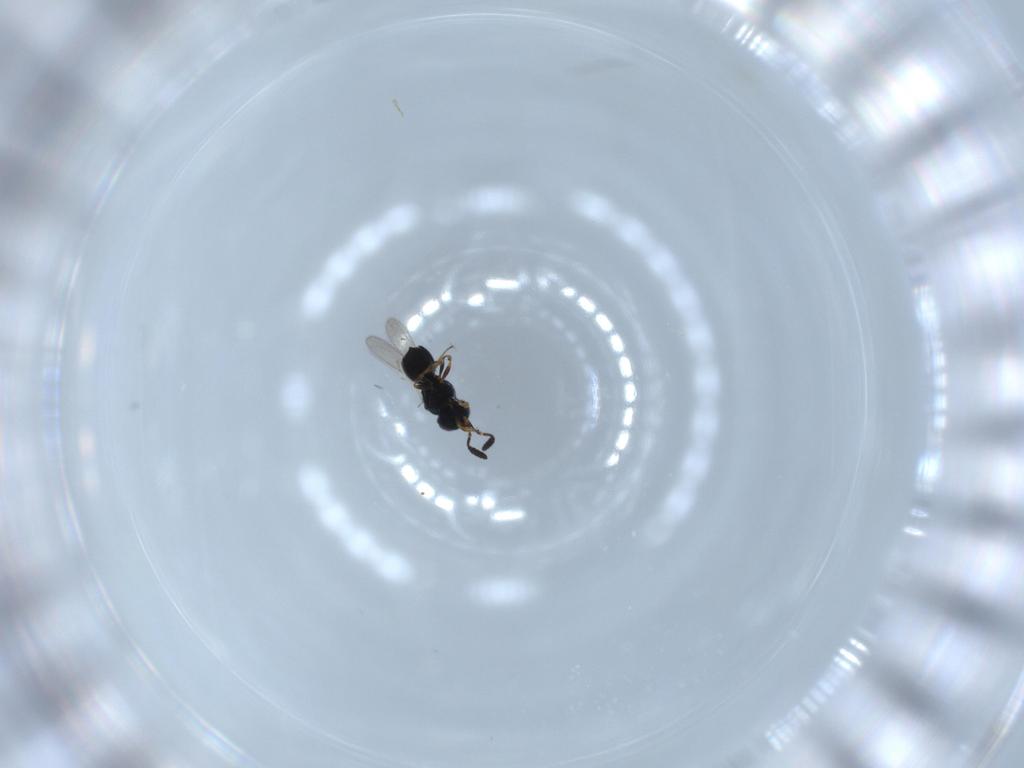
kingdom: Animalia
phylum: Arthropoda
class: Insecta
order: Hymenoptera
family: Scelionidae
